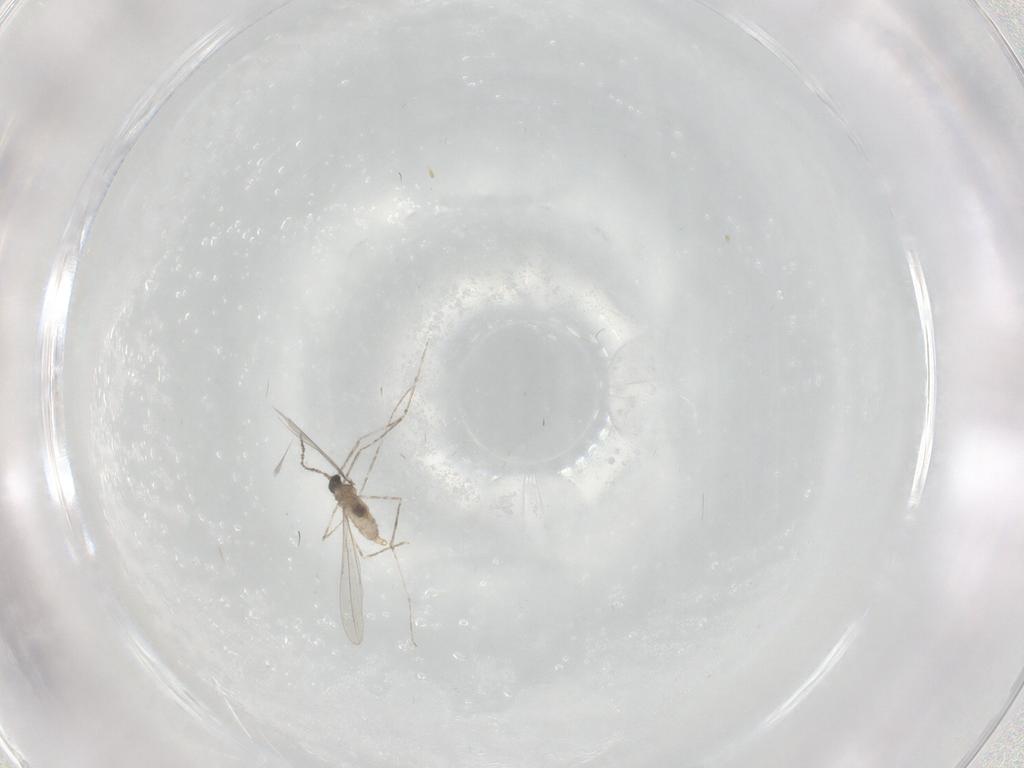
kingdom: Animalia
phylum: Arthropoda
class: Insecta
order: Diptera
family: Cecidomyiidae
